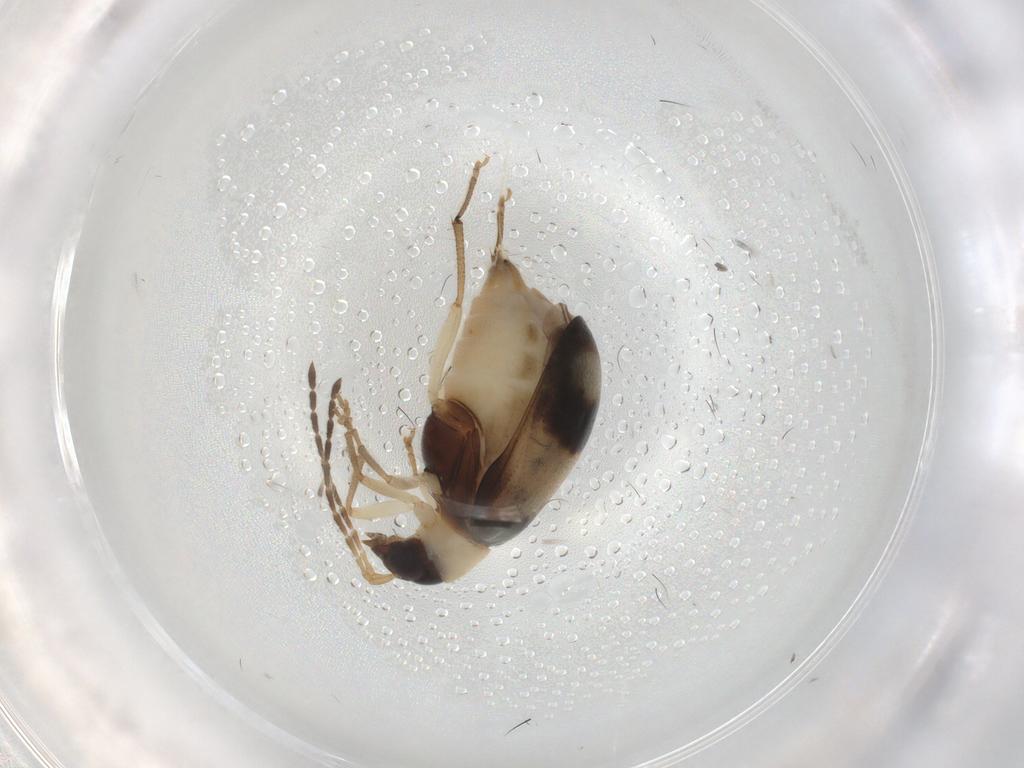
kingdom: Animalia
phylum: Arthropoda
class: Insecta
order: Coleoptera
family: Chrysomelidae
